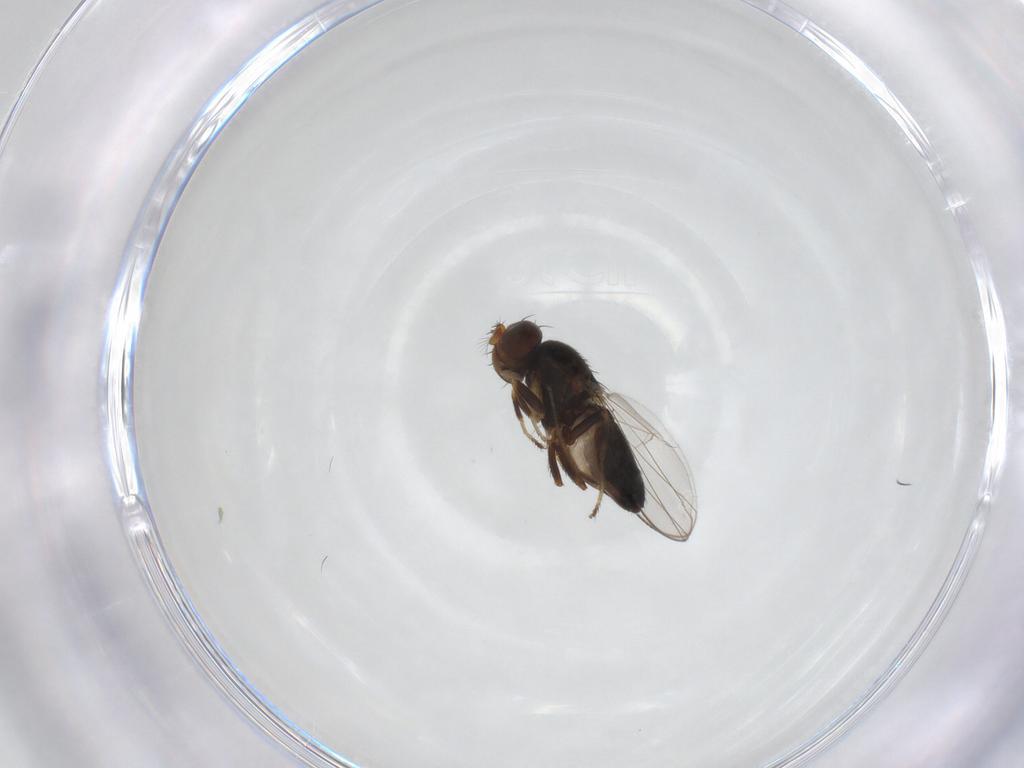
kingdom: Animalia
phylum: Arthropoda
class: Insecta
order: Diptera
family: Ephydridae
